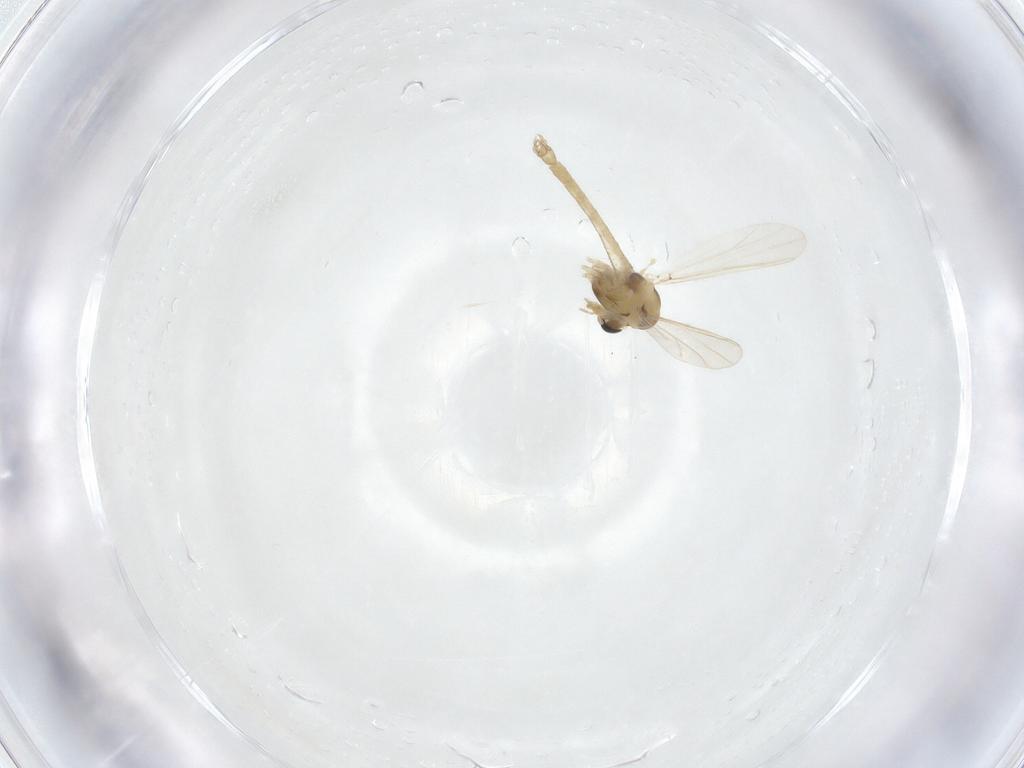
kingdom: Animalia
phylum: Arthropoda
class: Insecta
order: Diptera
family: Chironomidae
